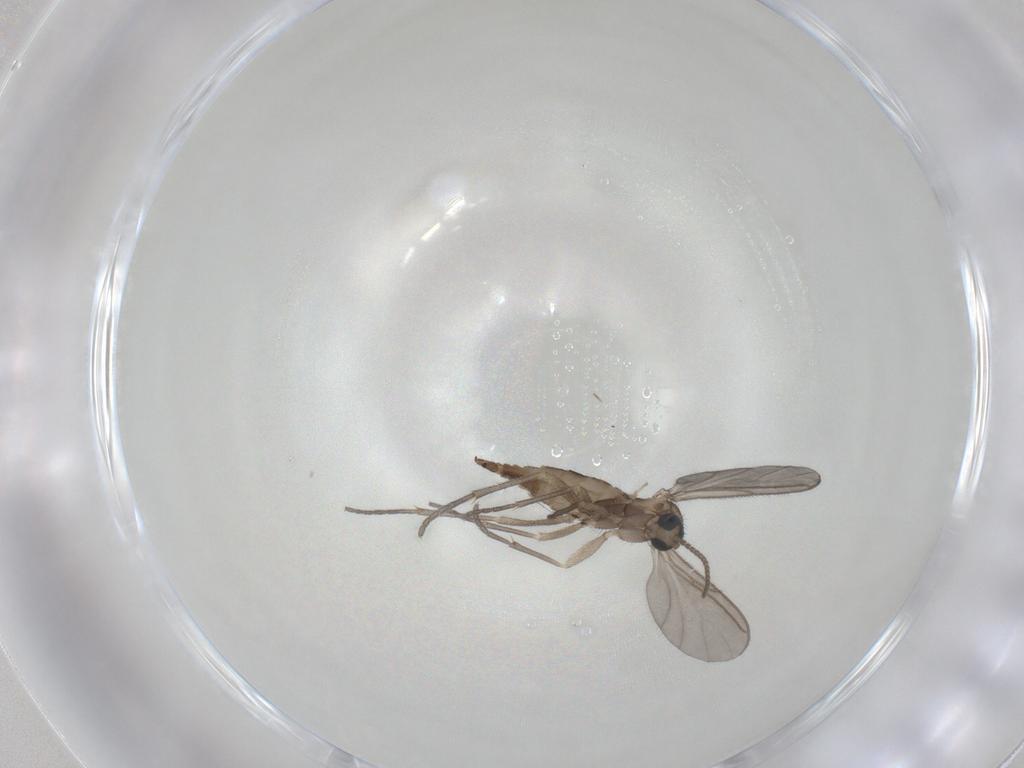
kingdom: Animalia
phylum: Arthropoda
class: Insecta
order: Diptera
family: Sciaridae
